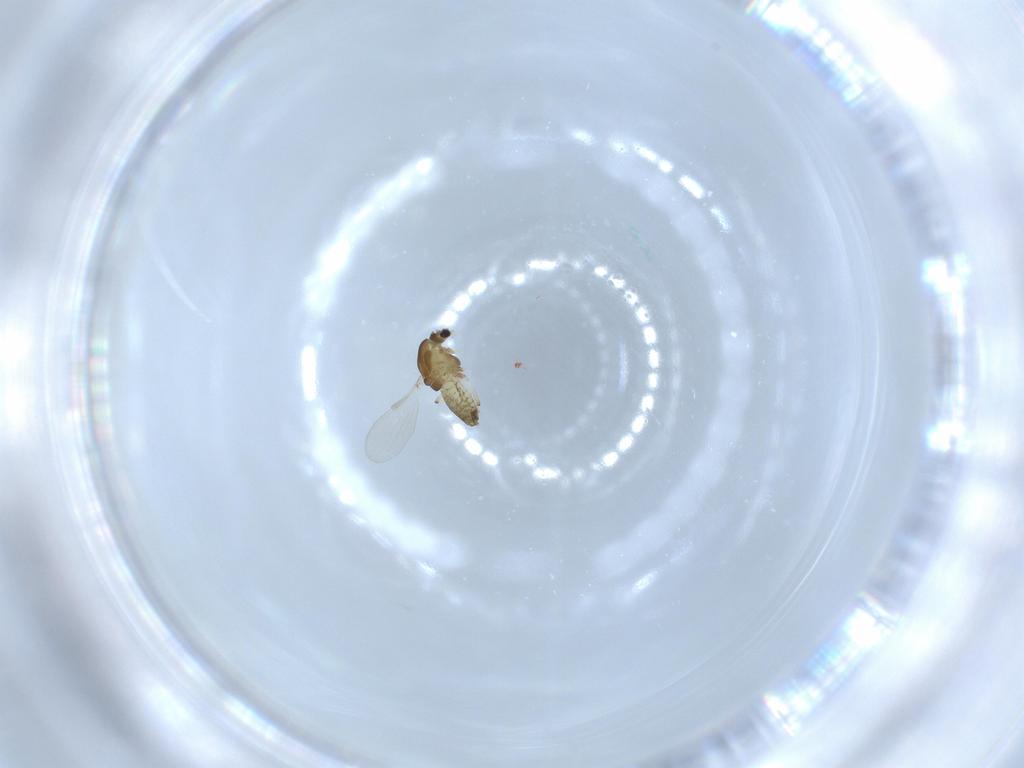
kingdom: Animalia
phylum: Arthropoda
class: Insecta
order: Diptera
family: Chironomidae
